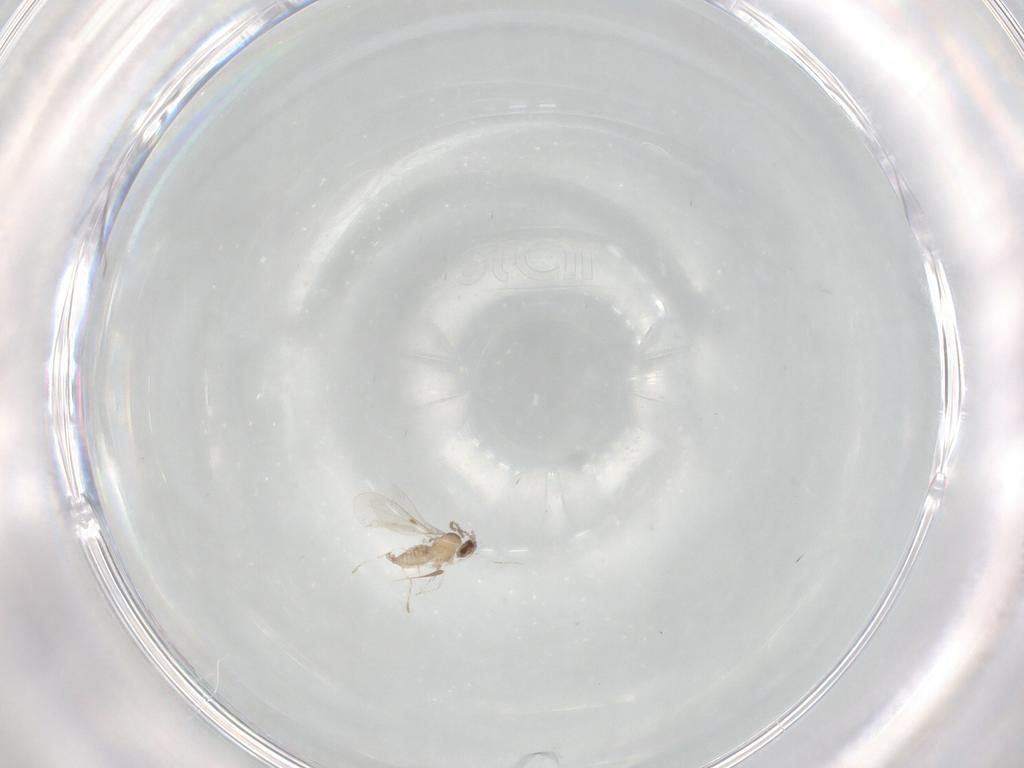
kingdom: Animalia
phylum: Arthropoda
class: Insecta
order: Diptera
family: Cecidomyiidae
